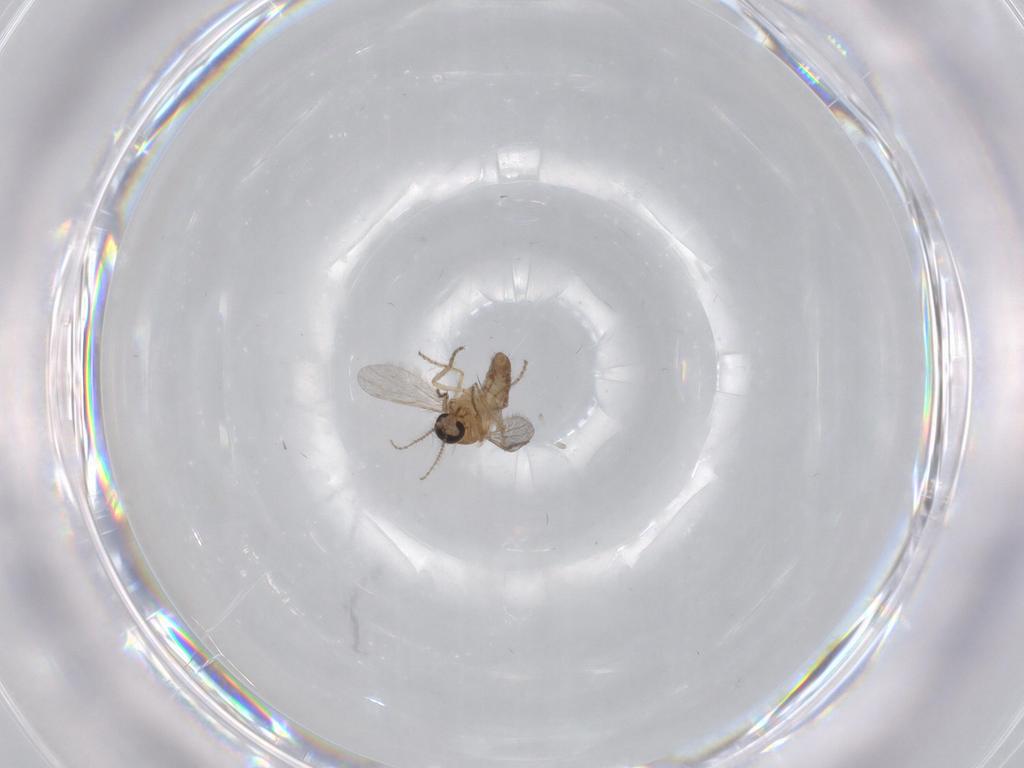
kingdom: Animalia
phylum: Arthropoda
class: Insecta
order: Diptera
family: Ceratopogonidae
